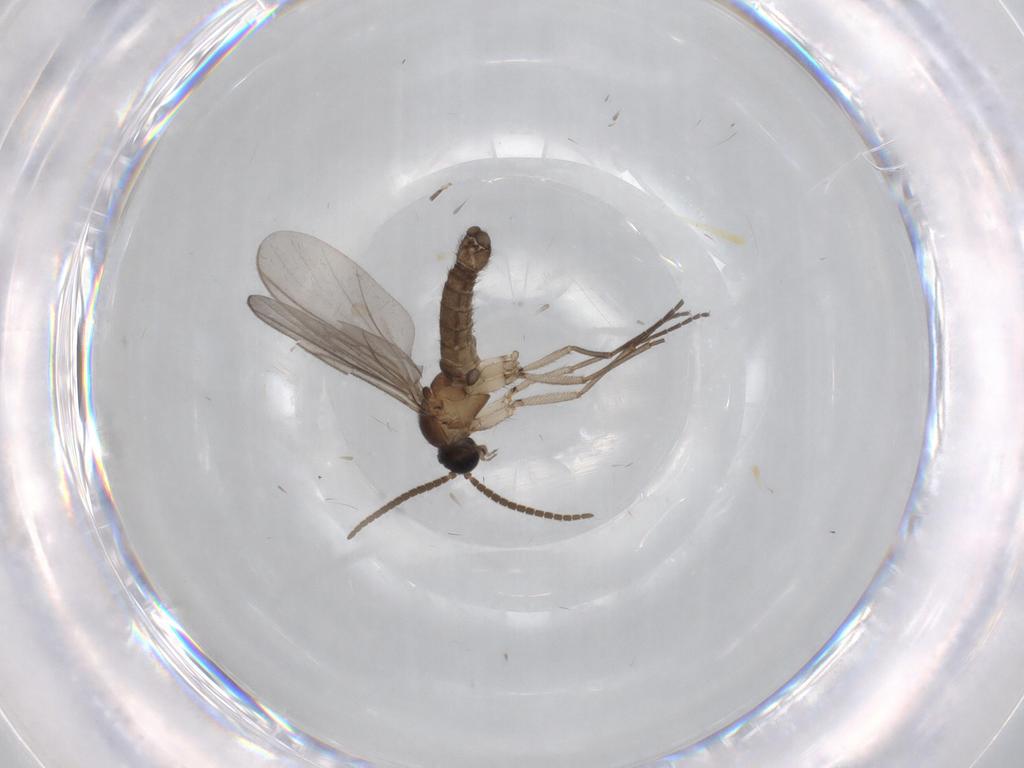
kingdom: Animalia
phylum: Arthropoda
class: Insecta
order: Diptera
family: Cecidomyiidae
